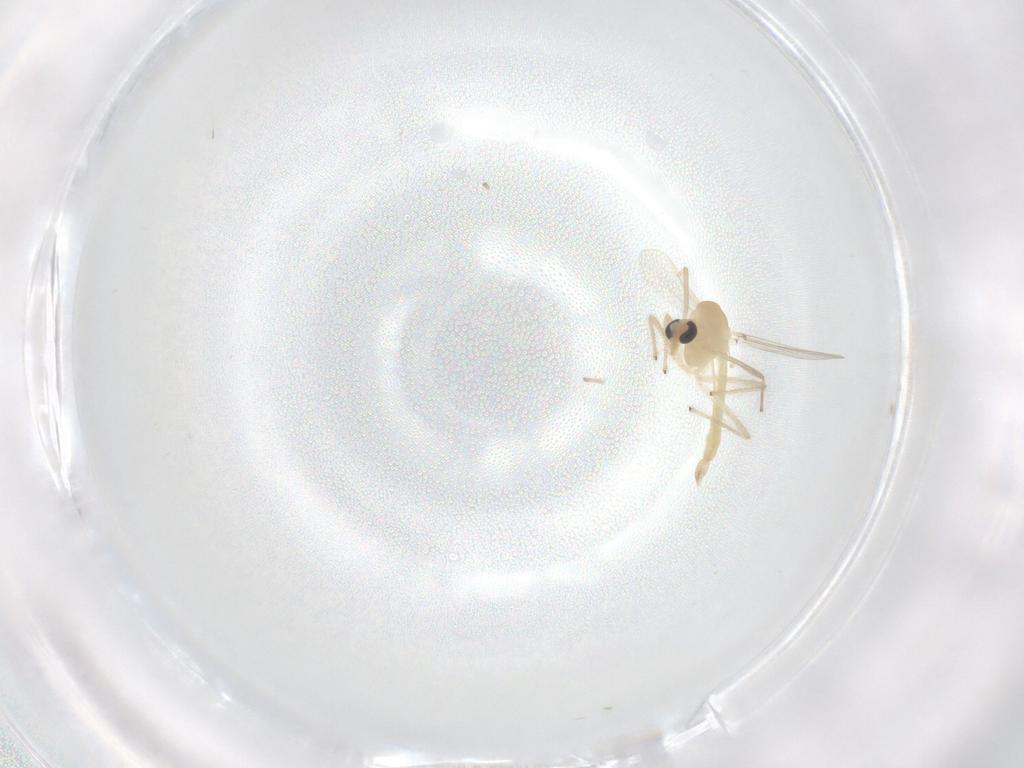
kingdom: Animalia
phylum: Arthropoda
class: Insecta
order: Diptera
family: Chironomidae
